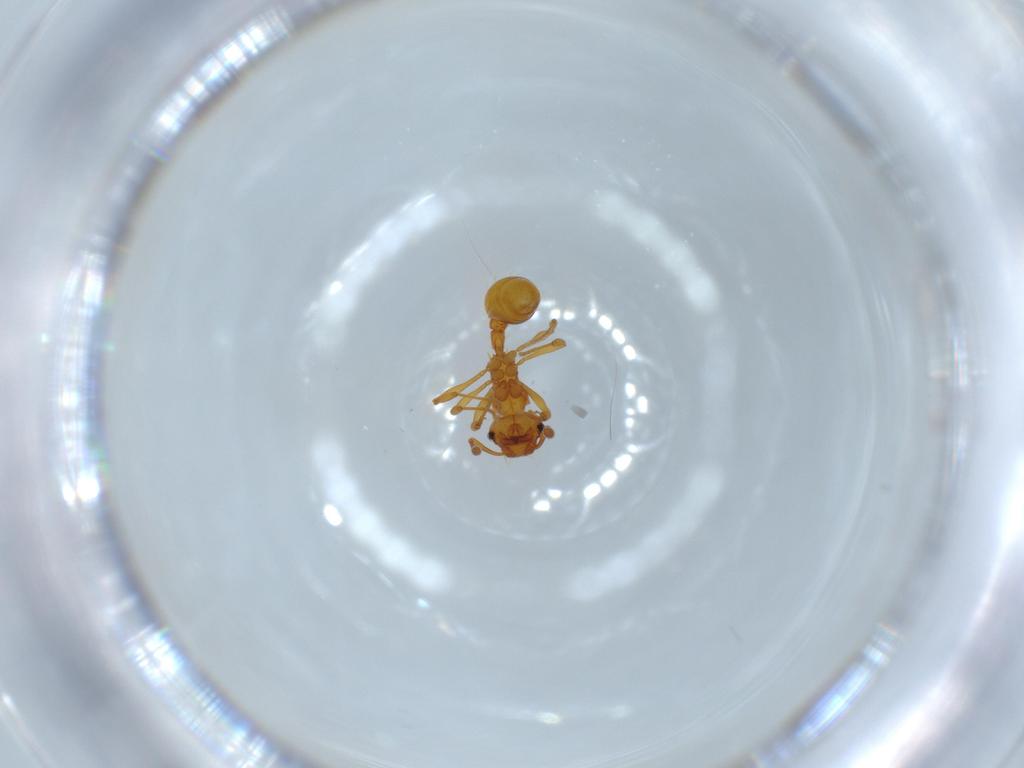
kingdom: Animalia
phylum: Arthropoda
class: Insecta
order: Hymenoptera
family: Formicidae
